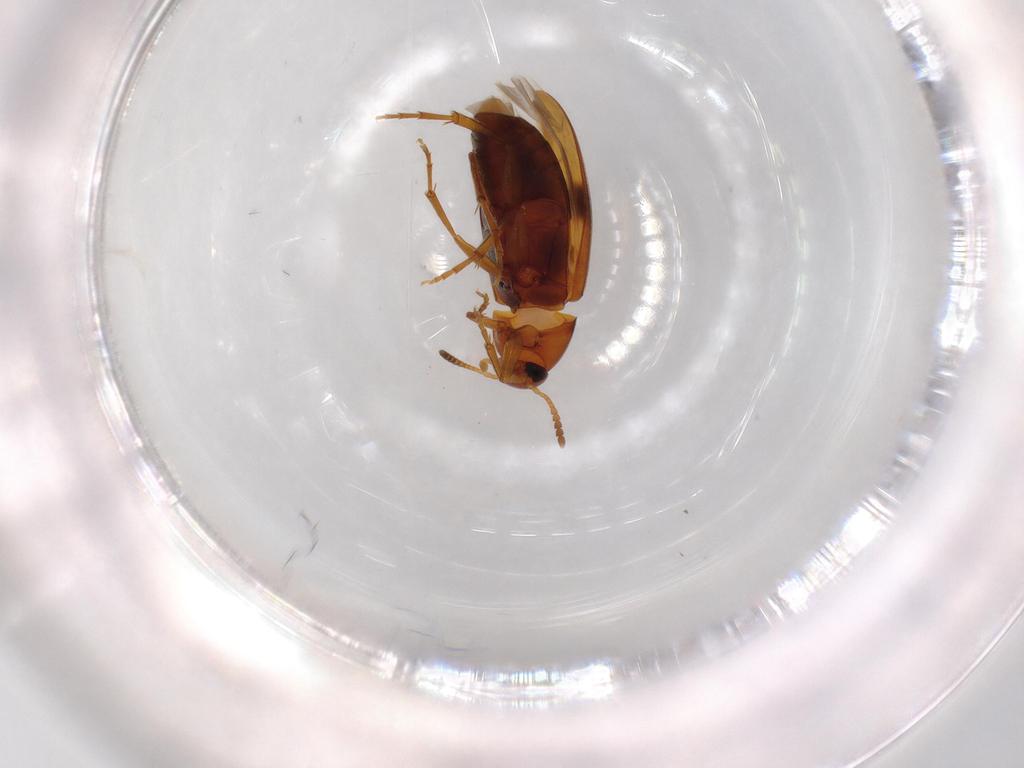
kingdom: Animalia
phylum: Arthropoda
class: Insecta
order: Coleoptera
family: Scraptiidae
